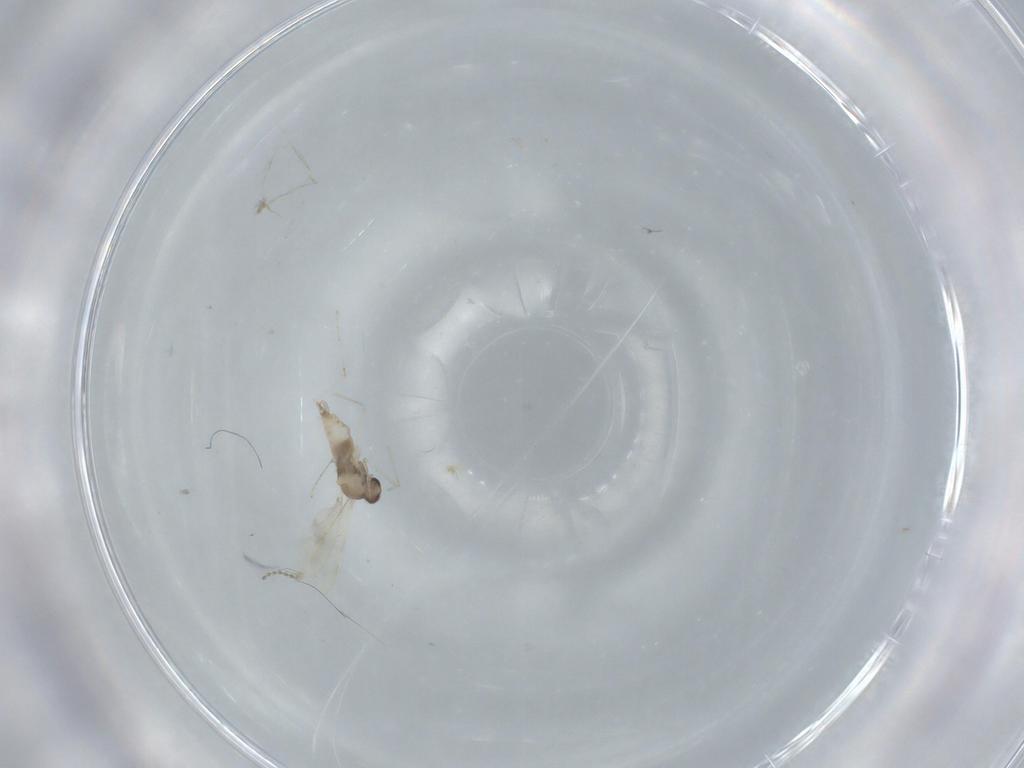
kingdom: Animalia
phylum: Arthropoda
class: Insecta
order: Diptera
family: Cecidomyiidae
